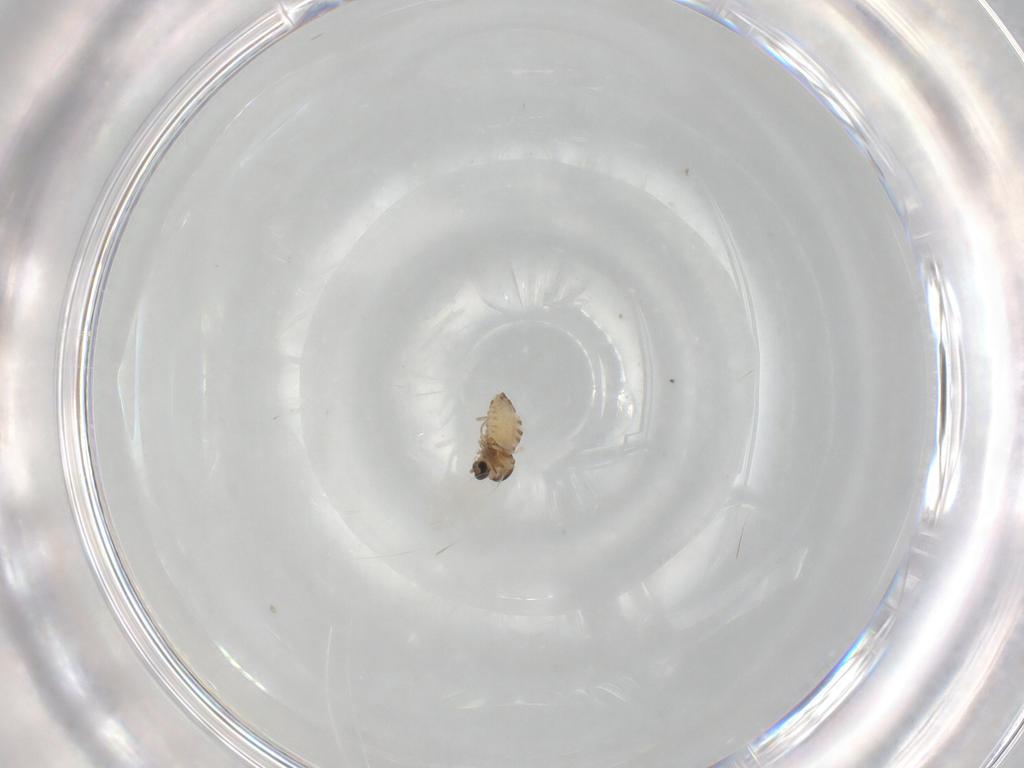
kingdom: Animalia
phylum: Arthropoda
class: Insecta
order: Diptera
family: Cecidomyiidae
